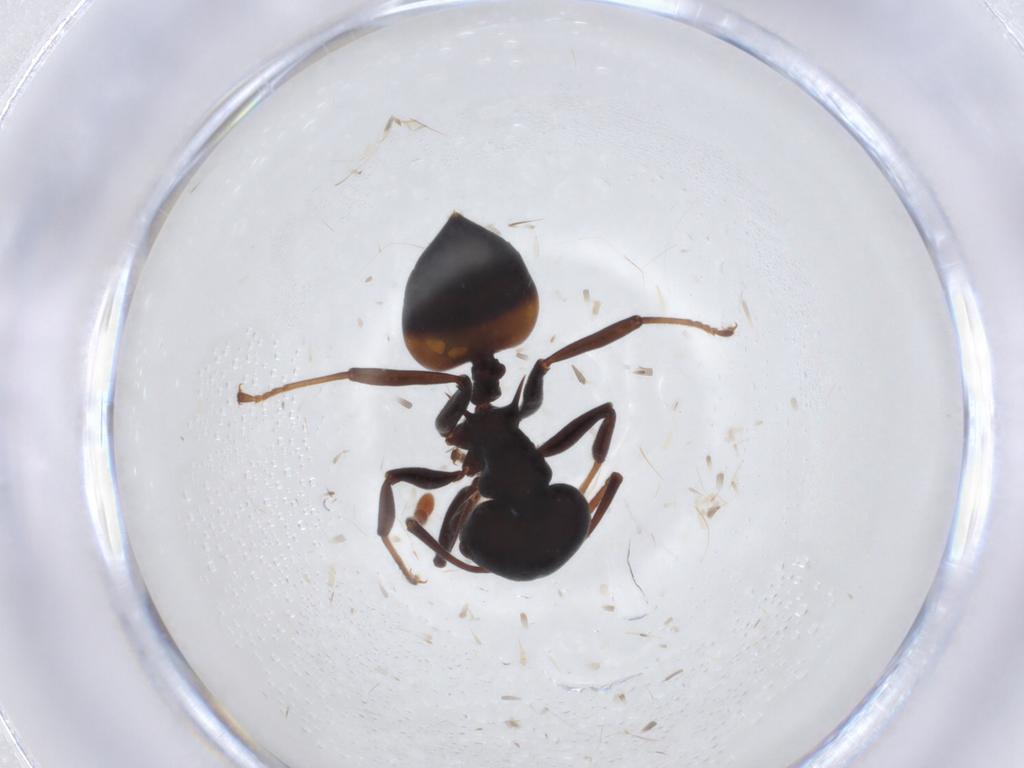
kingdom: Animalia
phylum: Arthropoda
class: Insecta
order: Hymenoptera
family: Formicidae
